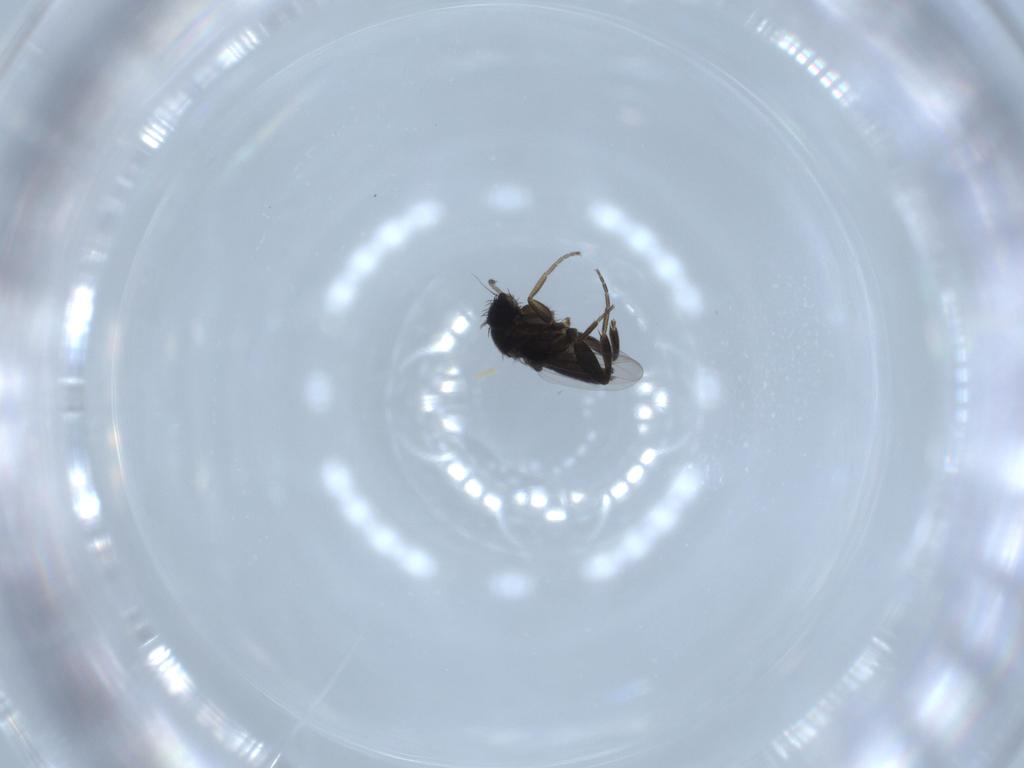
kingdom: Animalia
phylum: Arthropoda
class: Insecta
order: Diptera
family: Phoridae
